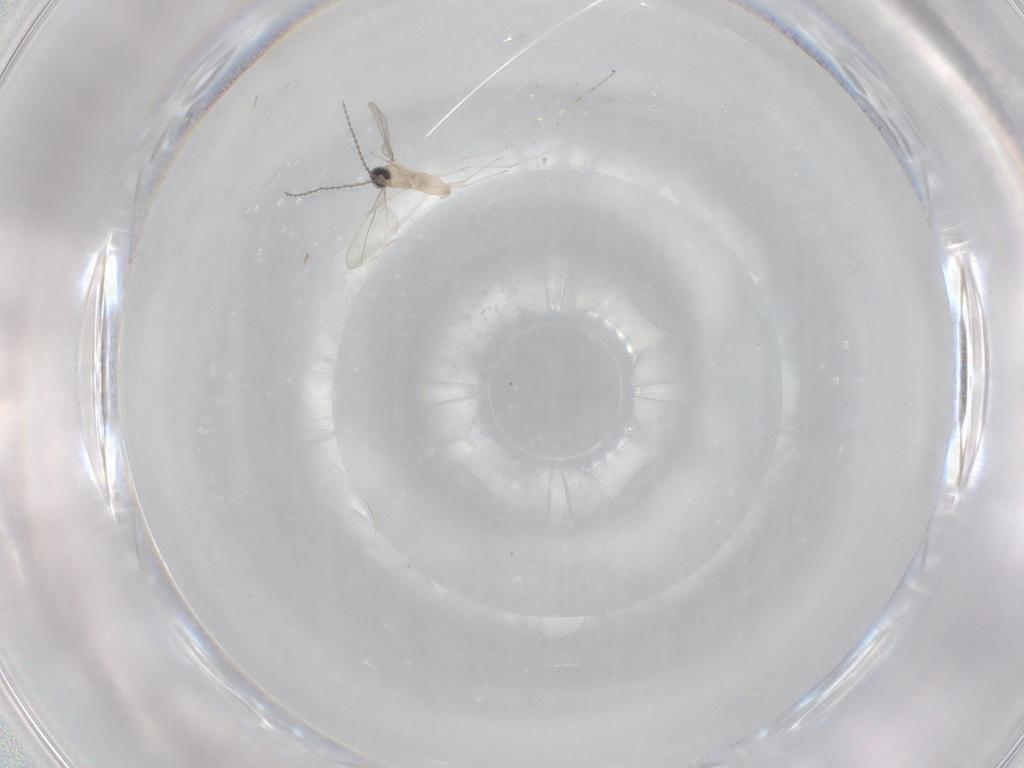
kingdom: Animalia
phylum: Arthropoda
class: Insecta
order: Diptera
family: Cecidomyiidae
